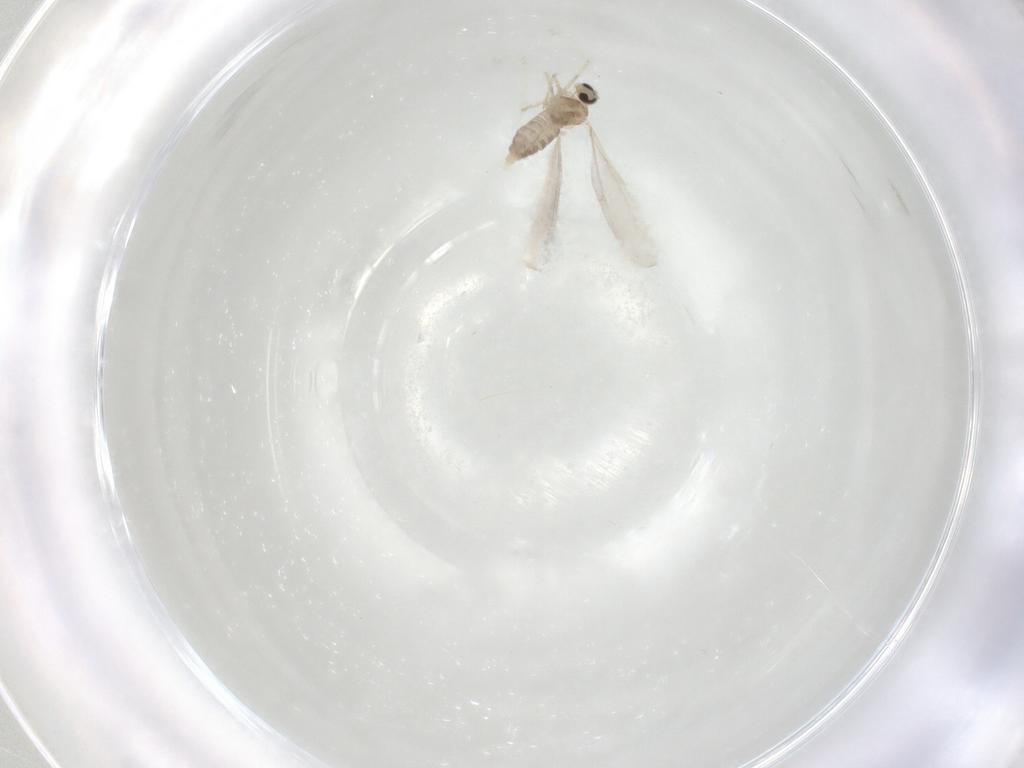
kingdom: Animalia
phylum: Arthropoda
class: Insecta
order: Diptera
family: Cecidomyiidae
